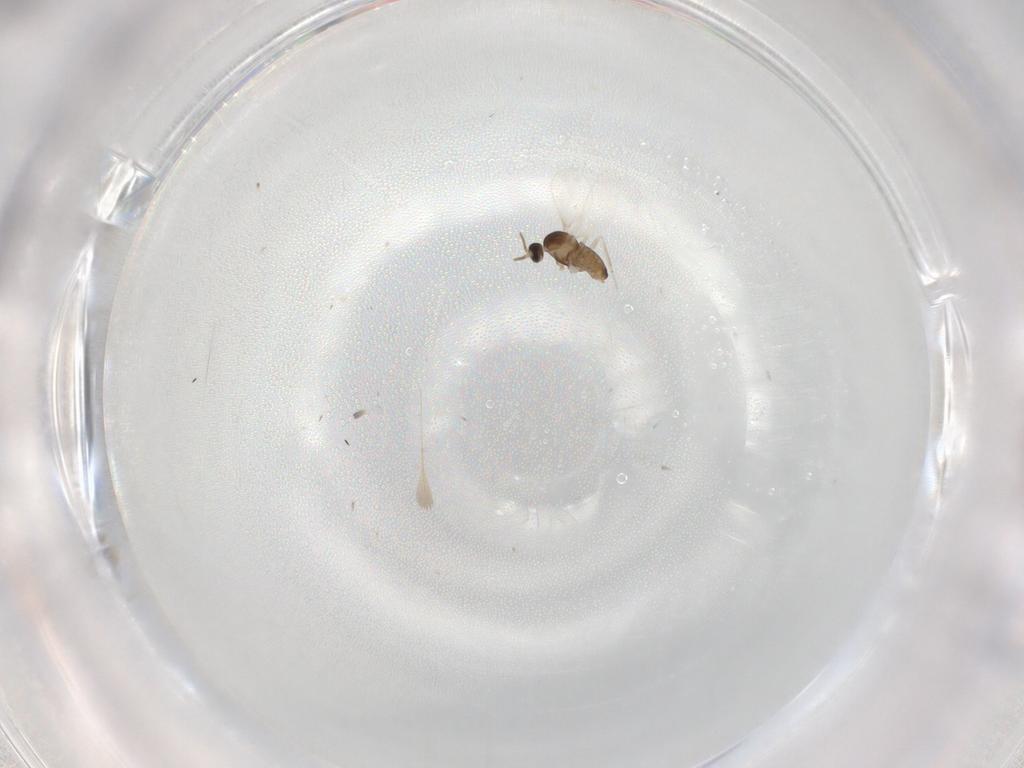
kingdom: Animalia
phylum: Arthropoda
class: Insecta
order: Diptera
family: Cecidomyiidae
